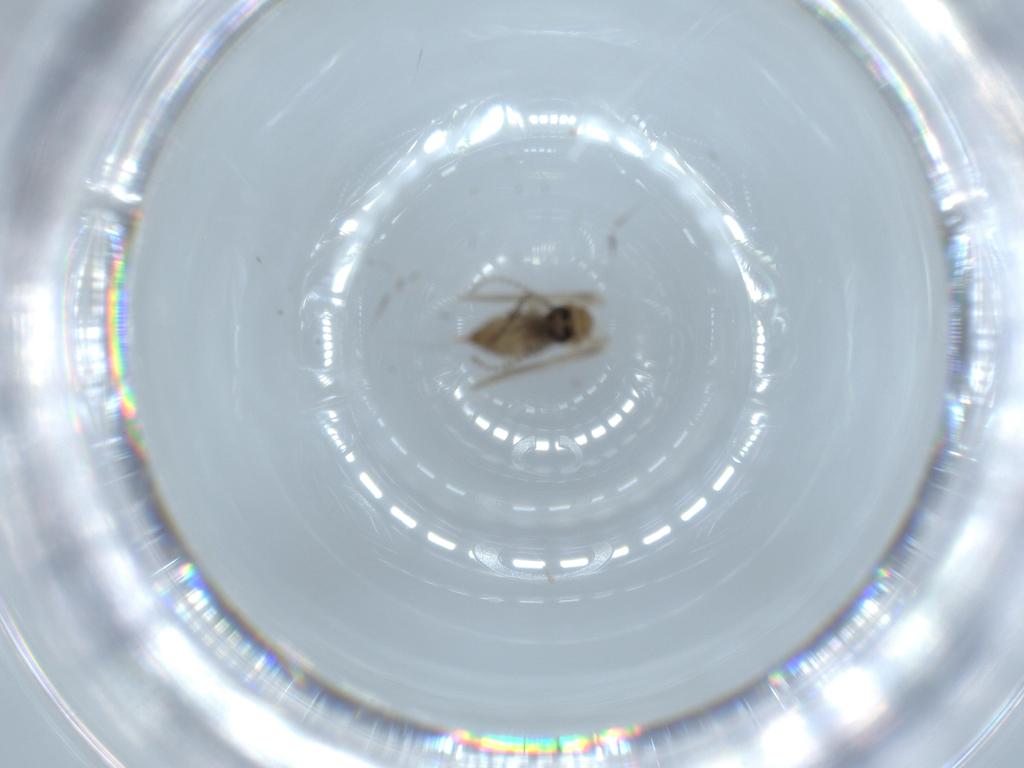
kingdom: Animalia
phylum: Arthropoda
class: Insecta
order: Diptera
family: Psychodidae
